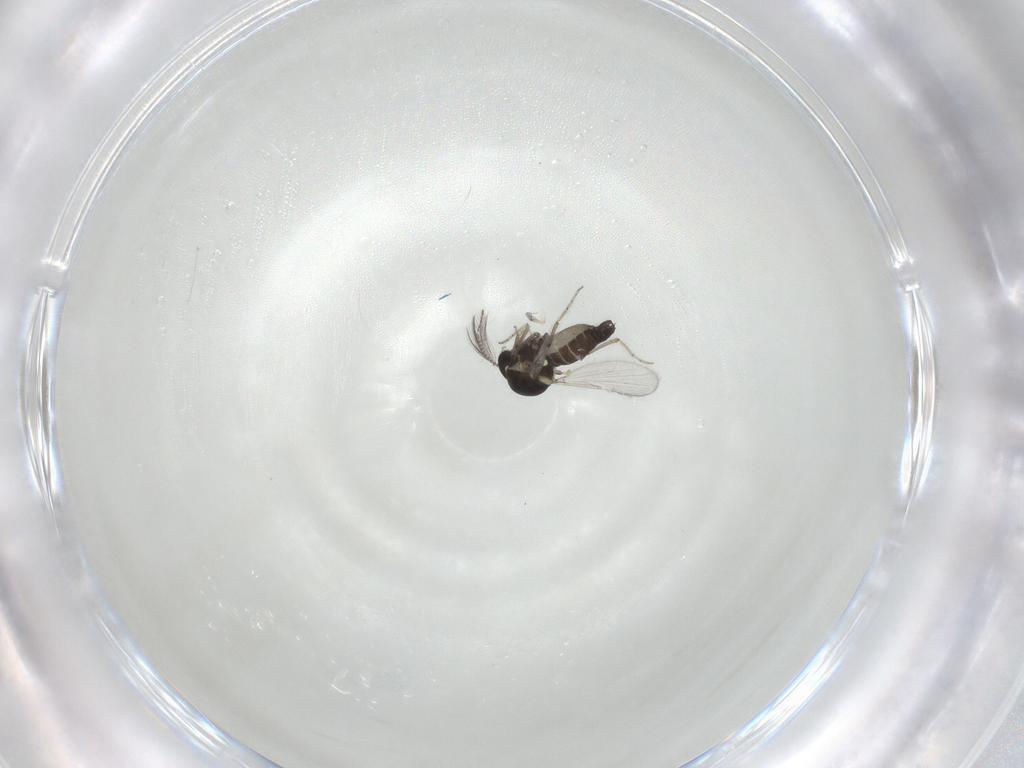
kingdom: Animalia
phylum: Arthropoda
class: Insecta
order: Diptera
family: Ceratopogonidae
